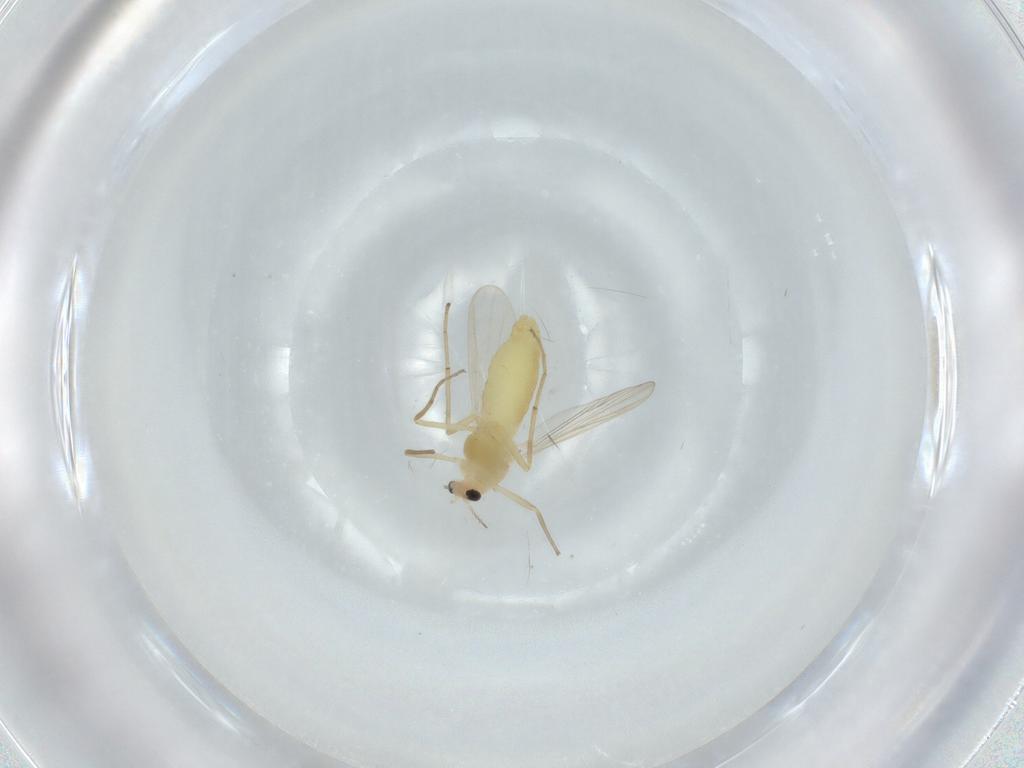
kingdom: Animalia
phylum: Arthropoda
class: Insecta
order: Diptera
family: Chironomidae
